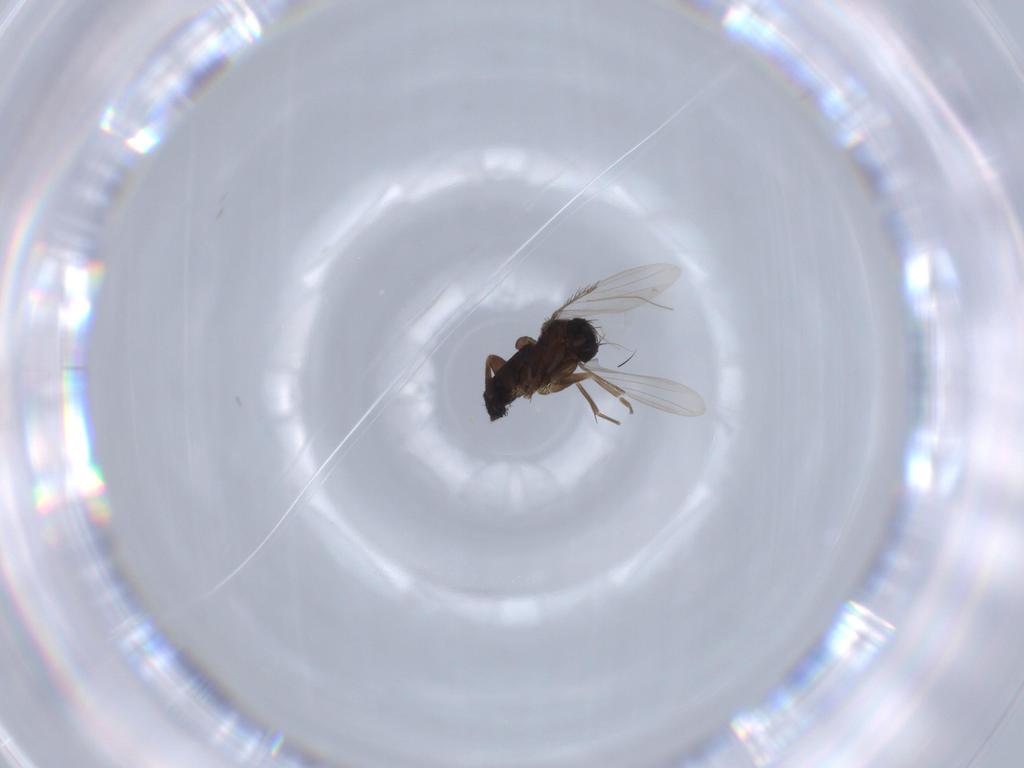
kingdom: Animalia
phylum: Arthropoda
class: Insecta
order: Diptera
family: Phoridae
